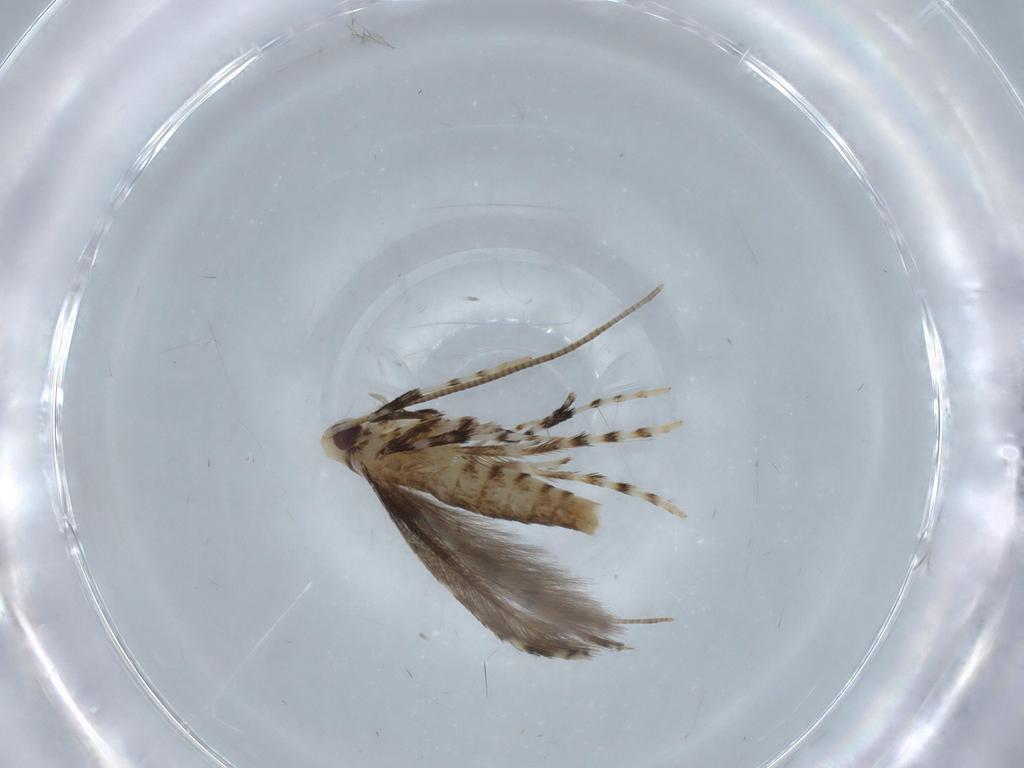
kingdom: Animalia
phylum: Arthropoda
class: Insecta
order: Lepidoptera
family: Gracillariidae
